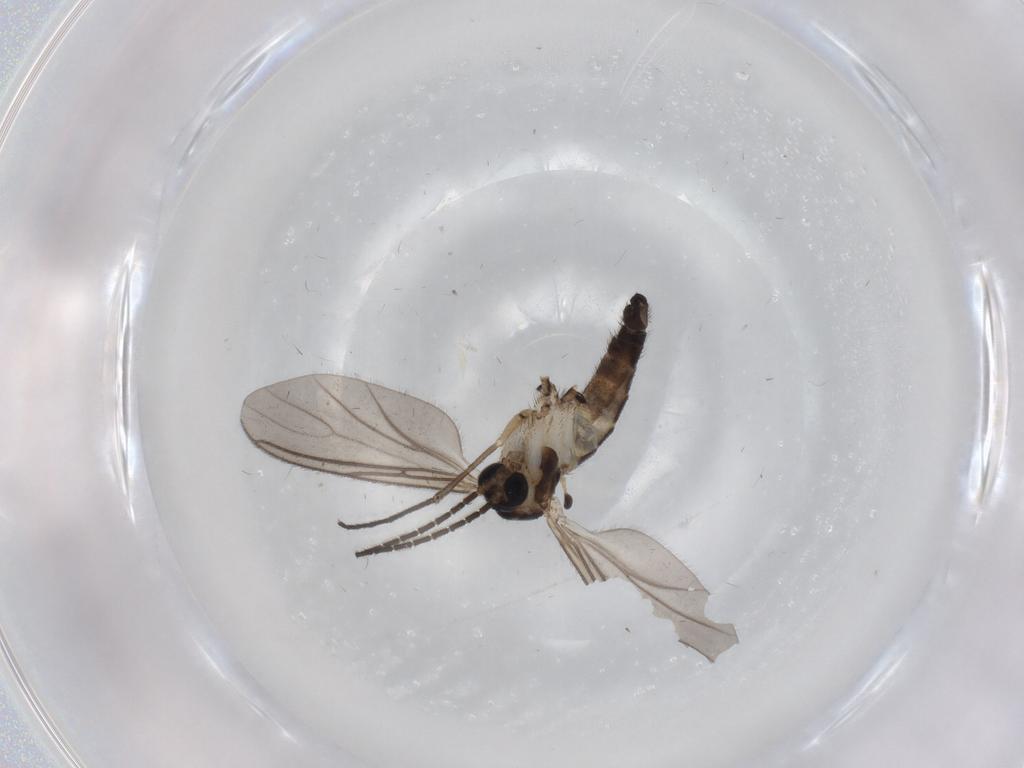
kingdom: Animalia
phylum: Arthropoda
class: Insecta
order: Diptera
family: Sciaridae
